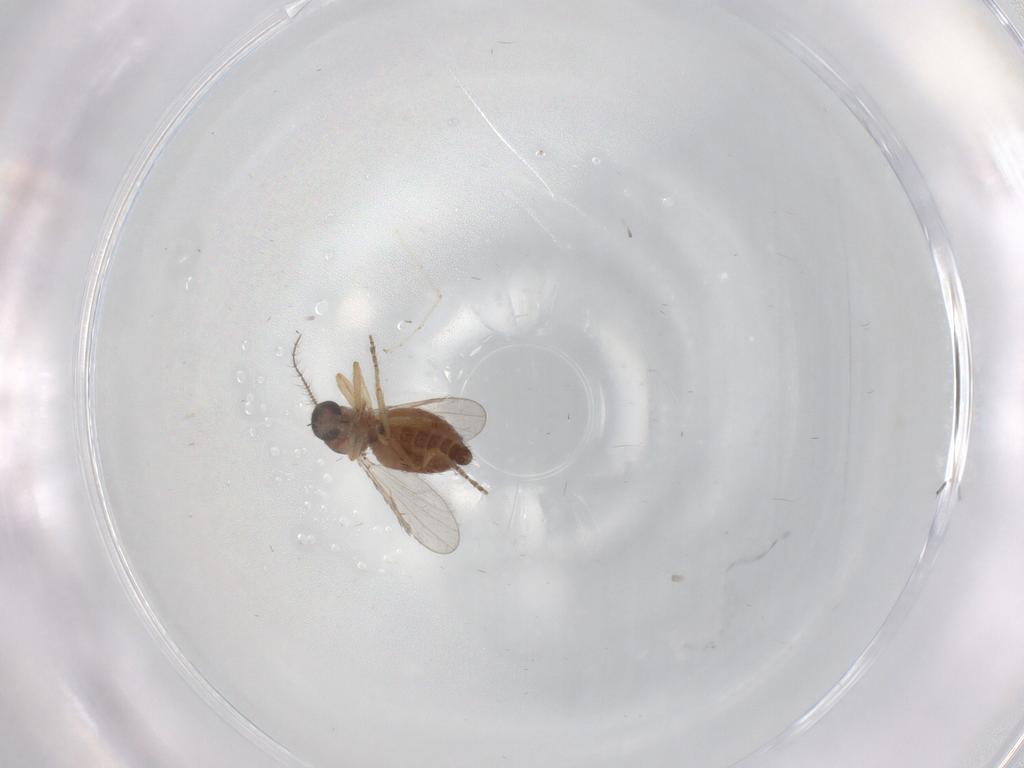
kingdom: Animalia
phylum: Arthropoda
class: Insecta
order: Diptera
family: Ceratopogonidae
